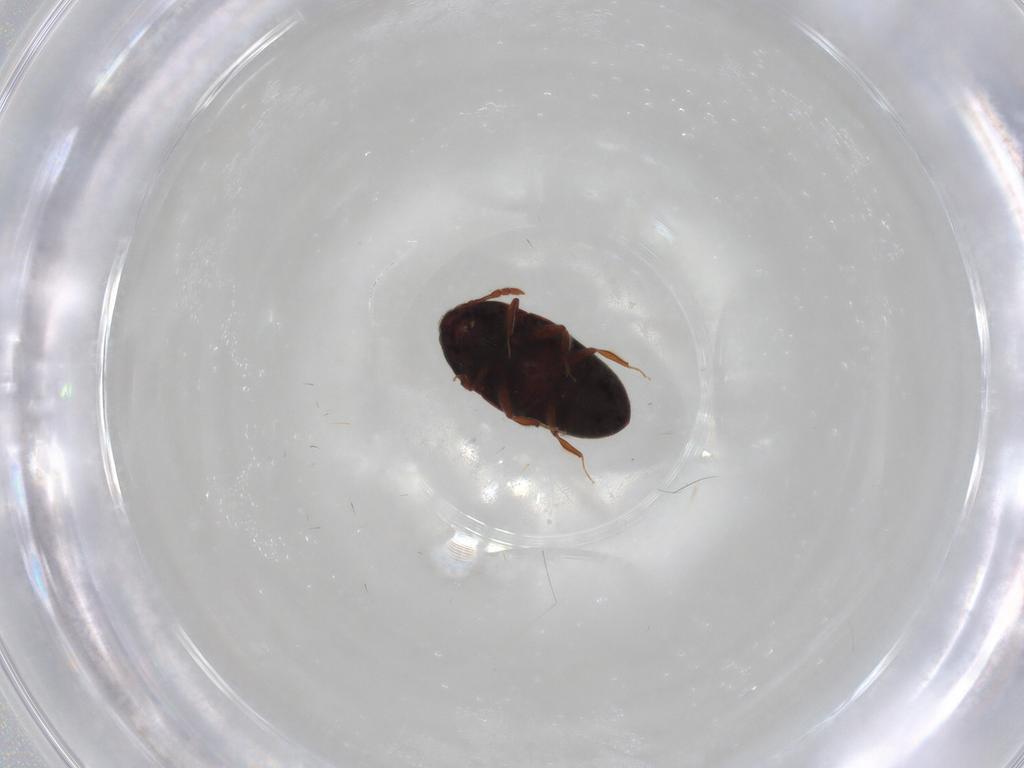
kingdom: Animalia
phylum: Arthropoda
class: Insecta
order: Coleoptera
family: Throscidae
